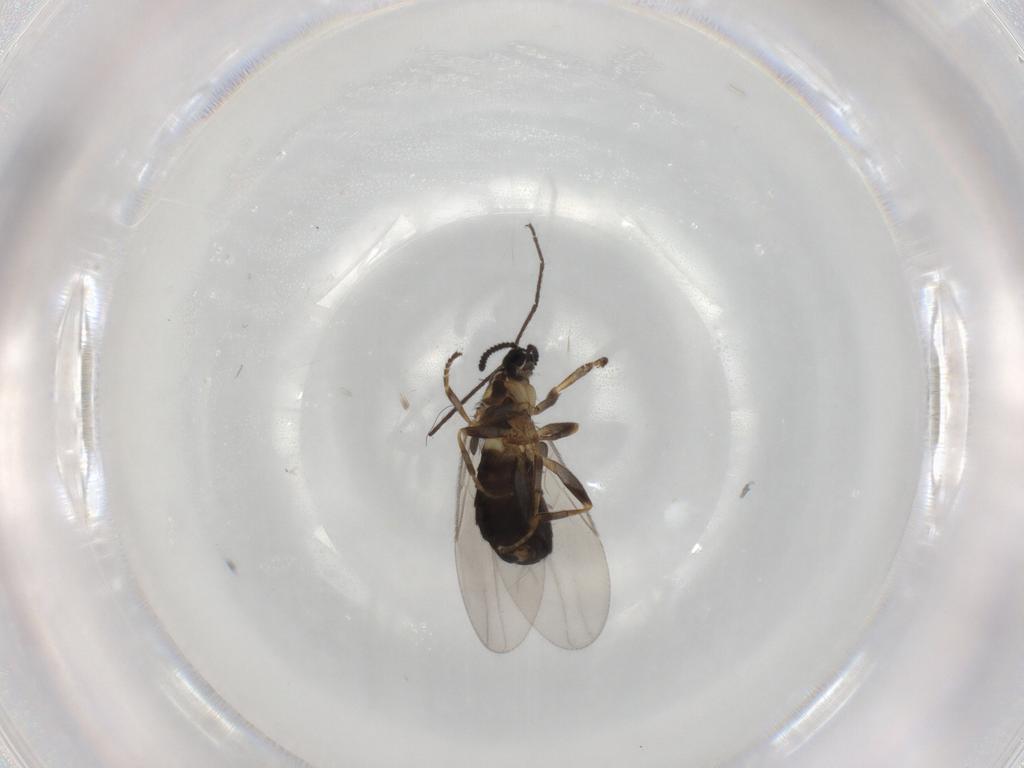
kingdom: Animalia
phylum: Arthropoda
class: Insecta
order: Diptera
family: Scatopsidae
